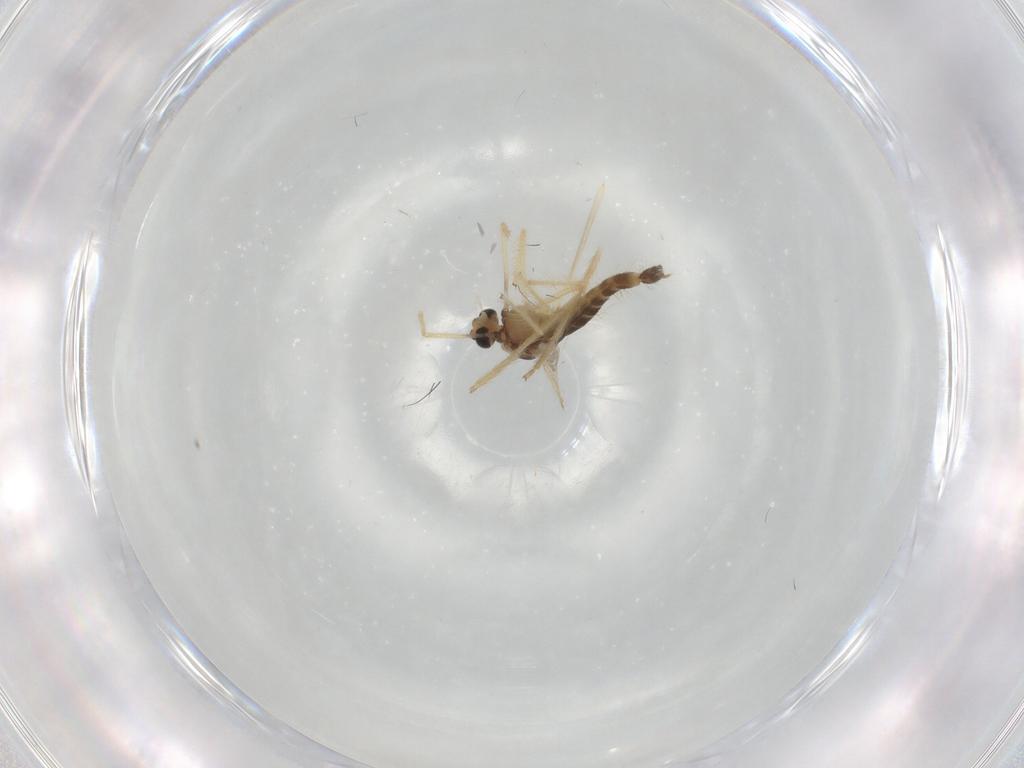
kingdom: Animalia
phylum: Arthropoda
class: Insecta
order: Diptera
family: Chironomidae
